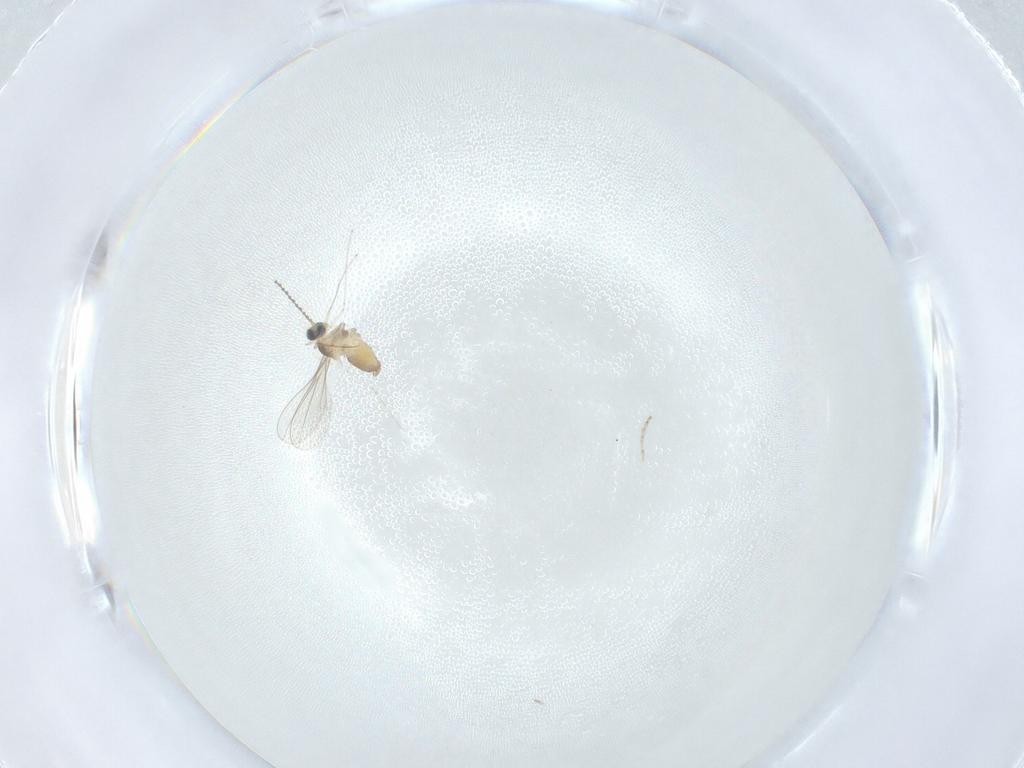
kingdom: Animalia
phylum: Arthropoda
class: Insecta
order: Diptera
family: Cecidomyiidae
